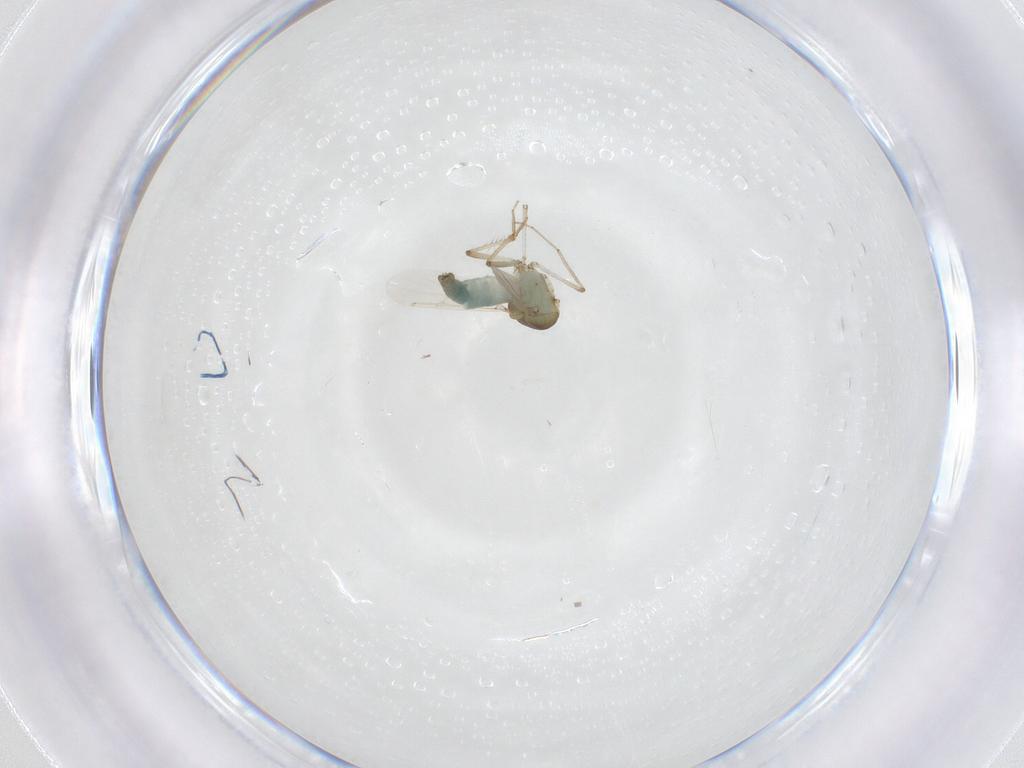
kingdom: Animalia
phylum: Arthropoda
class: Insecta
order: Diptera
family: Ceratopogonidae
